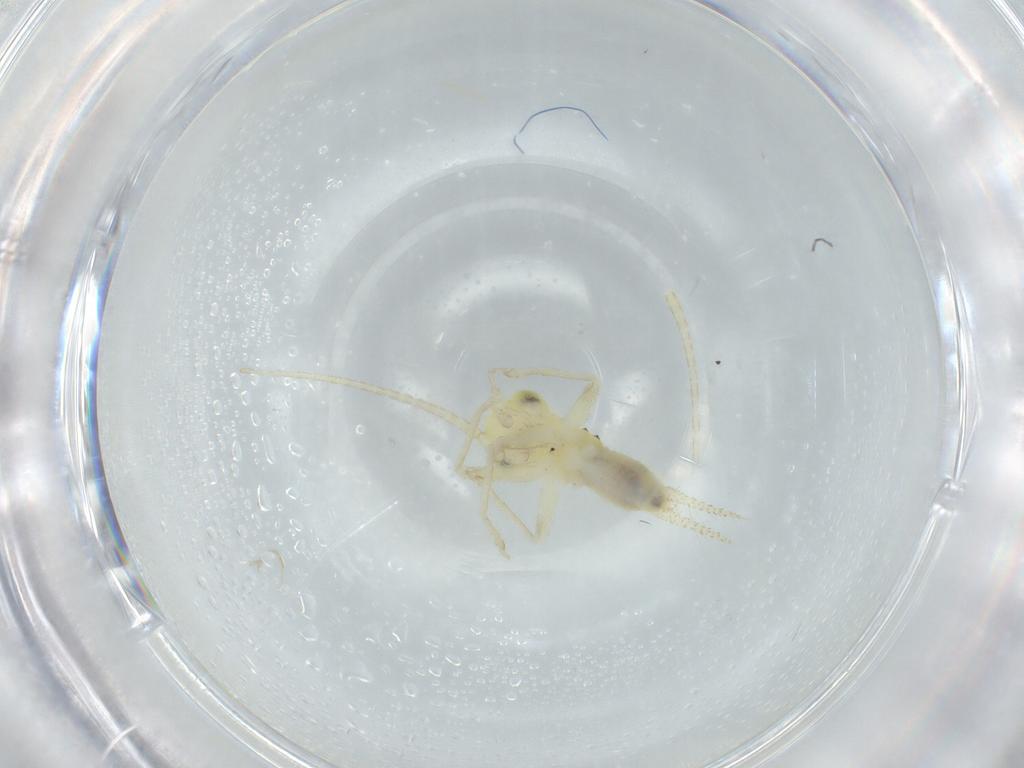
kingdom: Animalia
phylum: Arthropoda
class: Insecta
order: Orthoptera
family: Trigonidiidae
